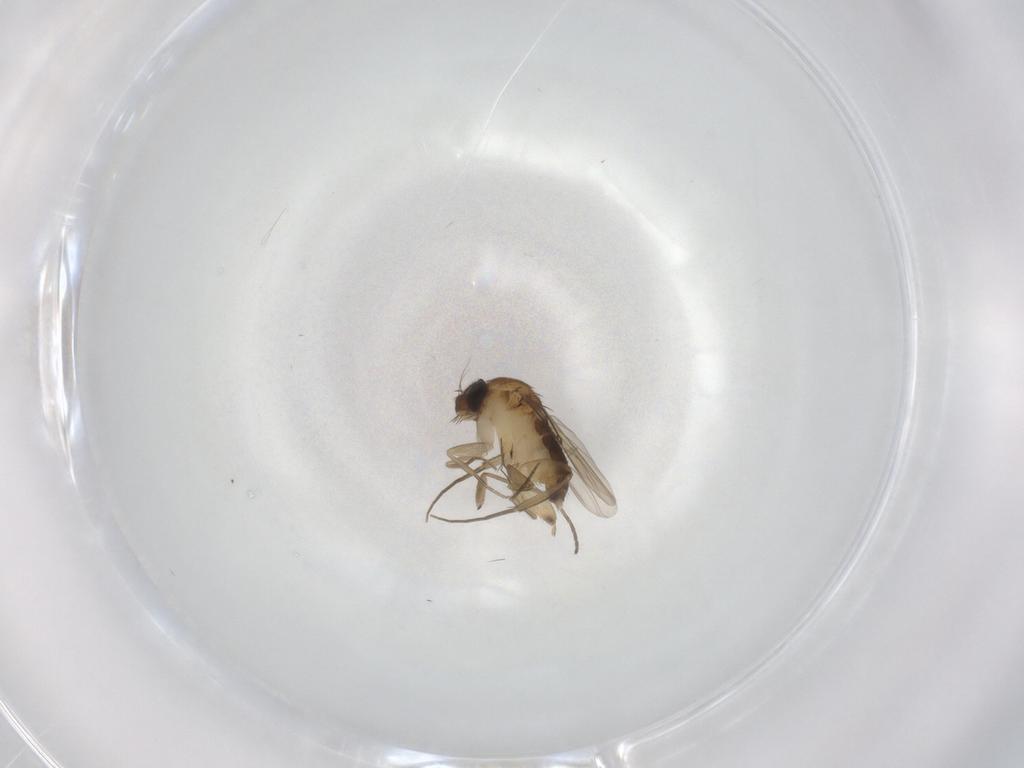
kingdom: Animalia
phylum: Arthropoda
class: Insecta
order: Diptera
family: Phoridae
